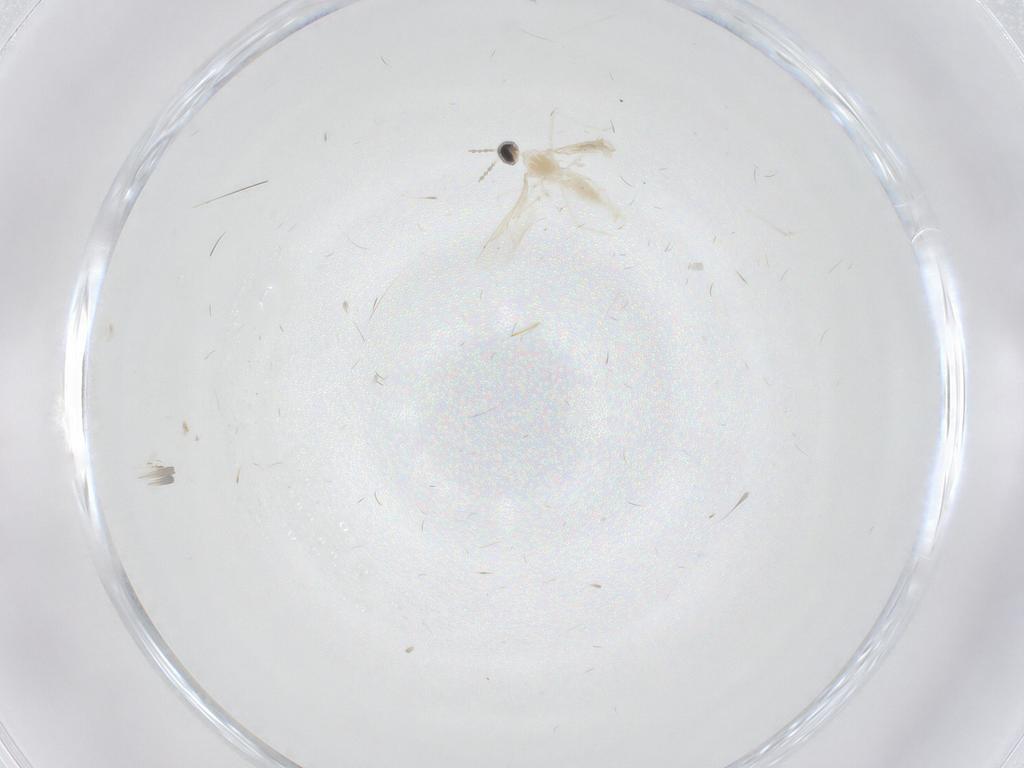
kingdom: Animalia
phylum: Arthropoda
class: Insecta
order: Diptera
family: Cecidomyiidae
